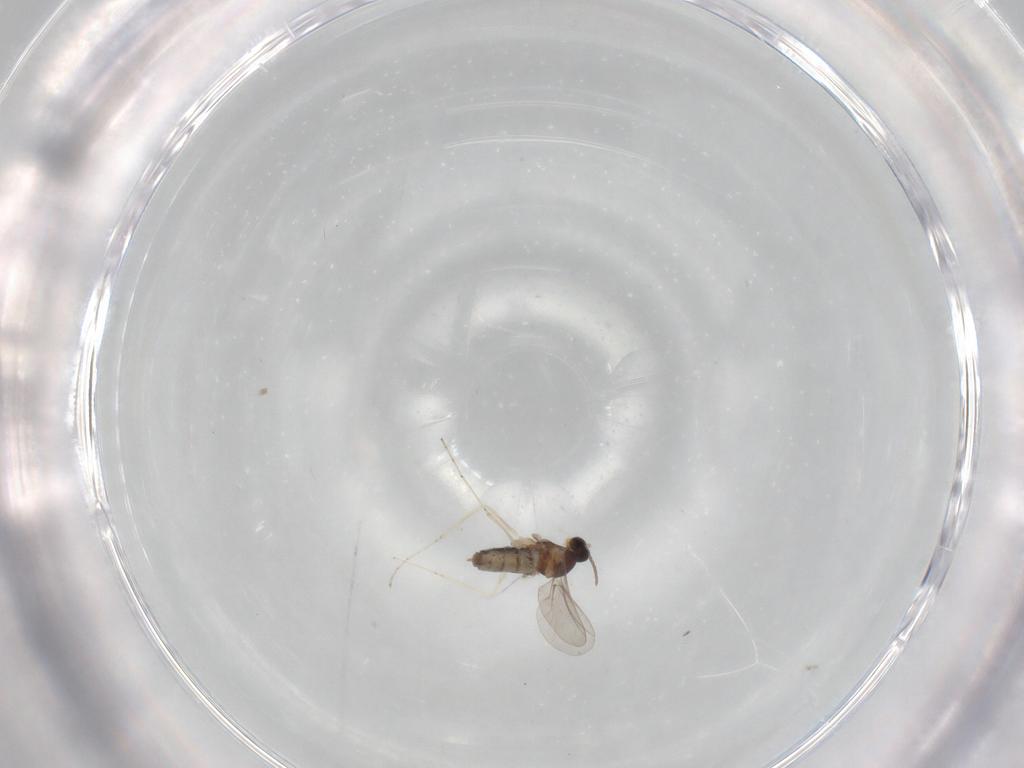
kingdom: Animalia
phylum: Arthropoda
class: Insecta
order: Diptera
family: Cecidomyiidae
